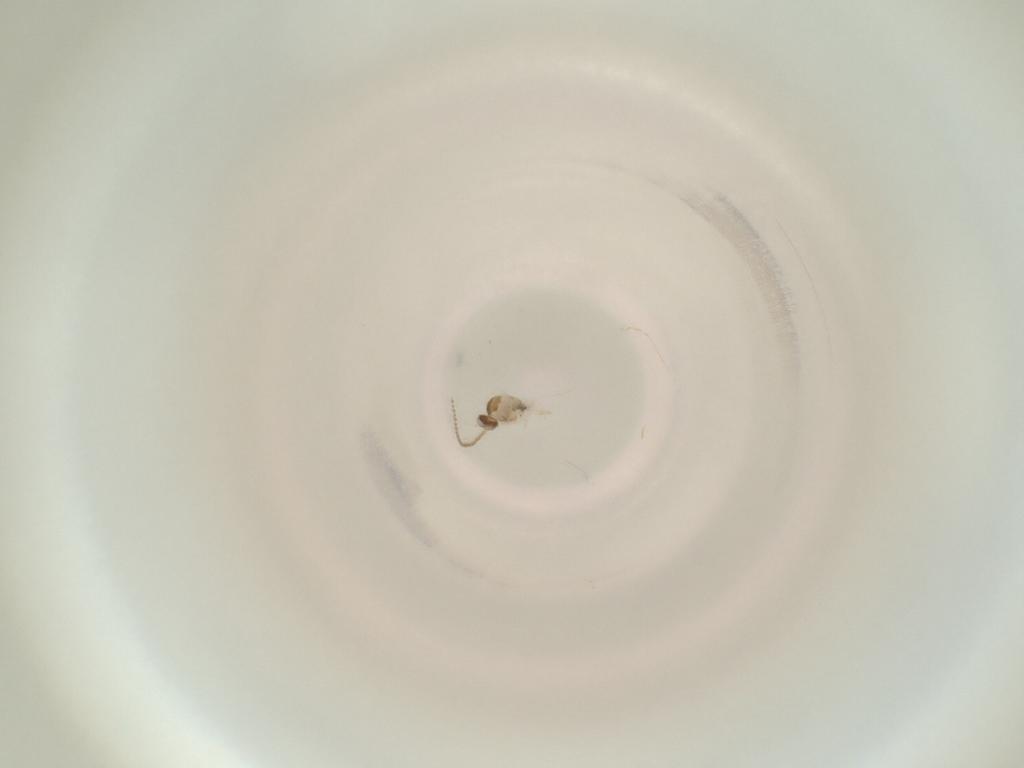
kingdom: Animalia
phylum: Arthropoda
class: Insecta
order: Diptera
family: Cecidomyiidae
